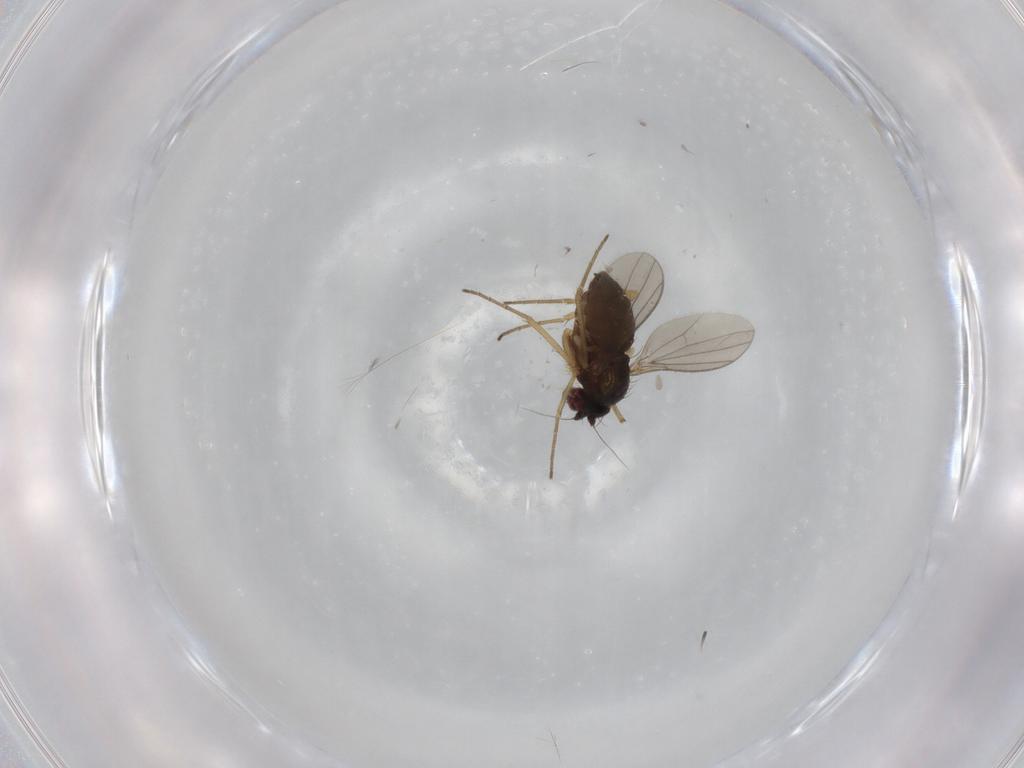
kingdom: Animalia
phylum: Arthropoda
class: Insecta
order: Diptera
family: Dolichopodidae
